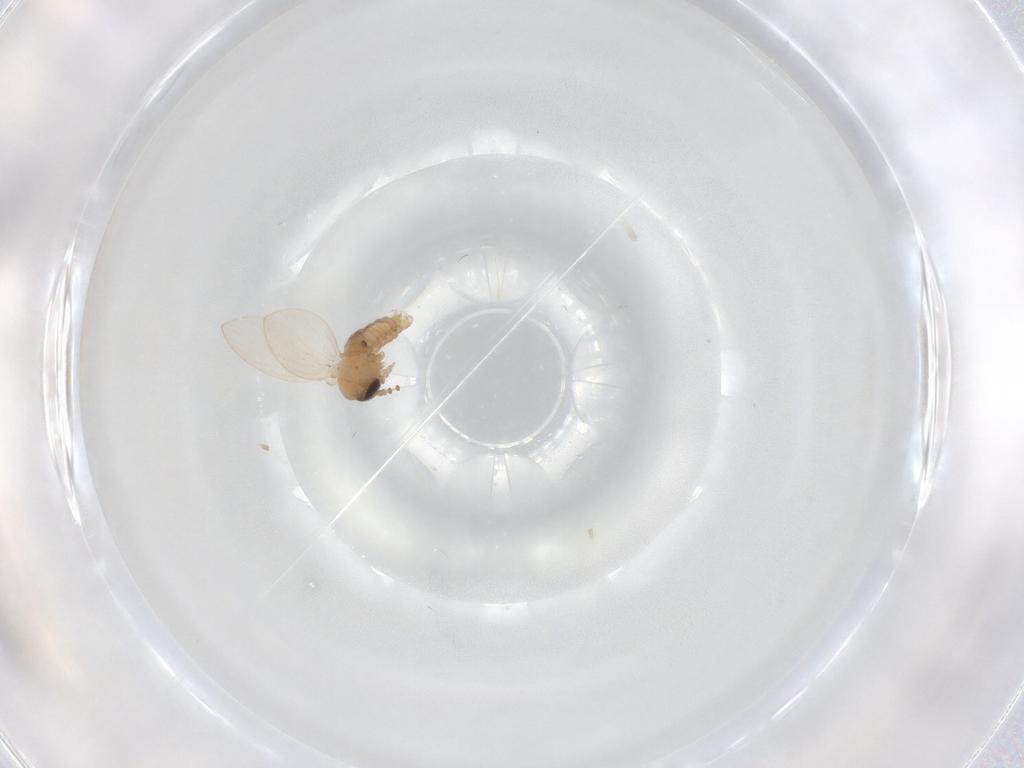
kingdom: Animalia
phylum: Arthropoda
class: Insecta
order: Diptera
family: Psychodidae
